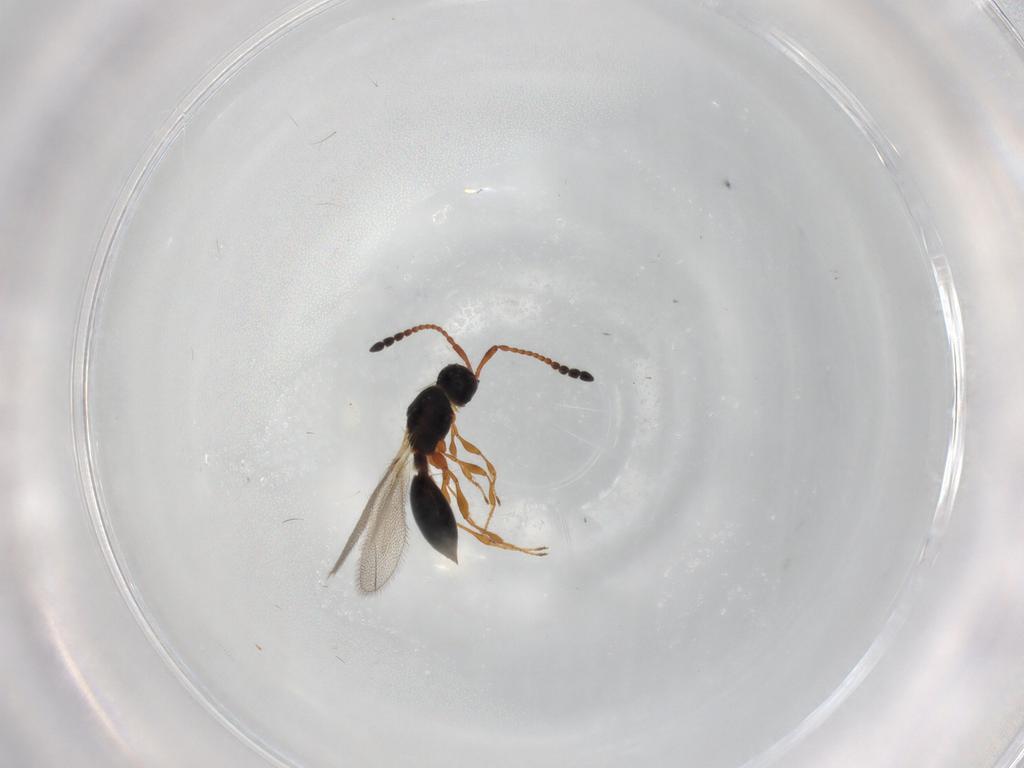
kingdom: Animalia
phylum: Arthropoda
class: Insecta
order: Hymenoptera
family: Diapriidae
